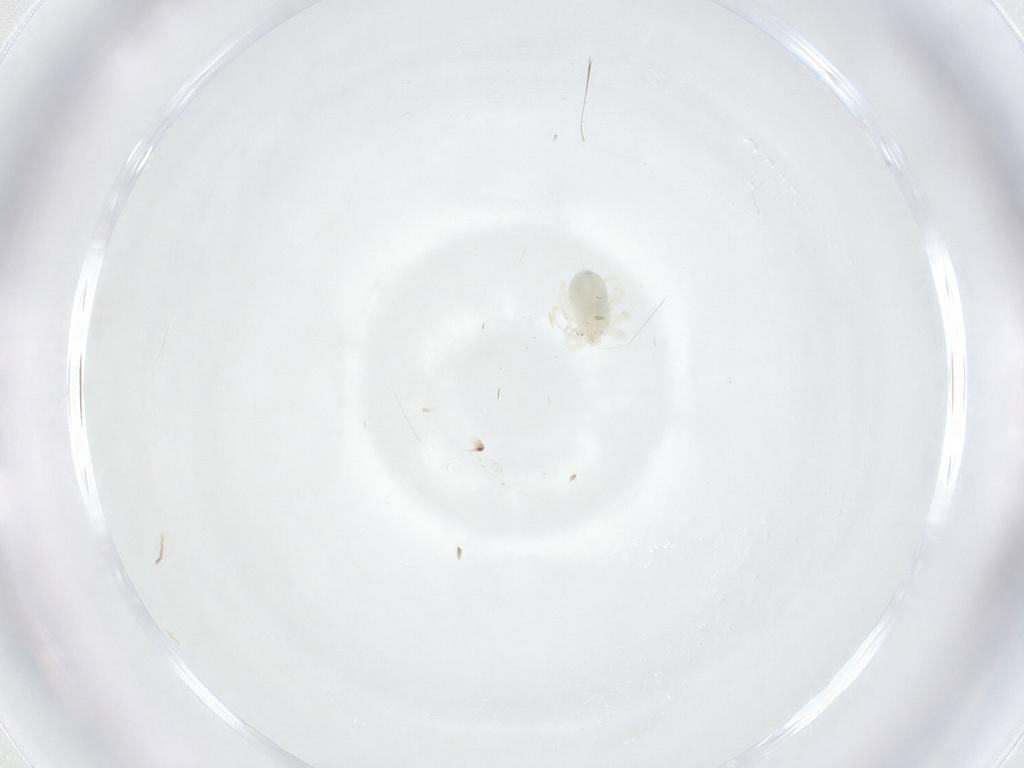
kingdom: Animalia
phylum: Arthropoda
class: Arachnida
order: Trombidiformes
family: Anystidae
